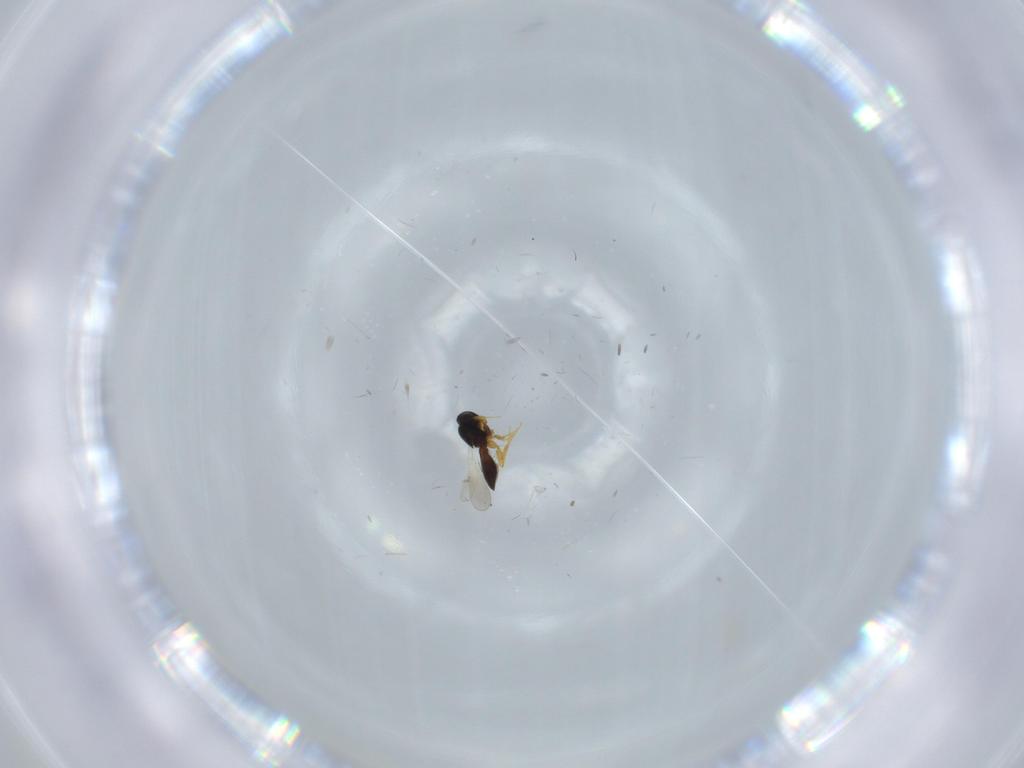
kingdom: Animalia
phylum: Arthropoda
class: Insecta
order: Hymenoptera
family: Platygastridae
